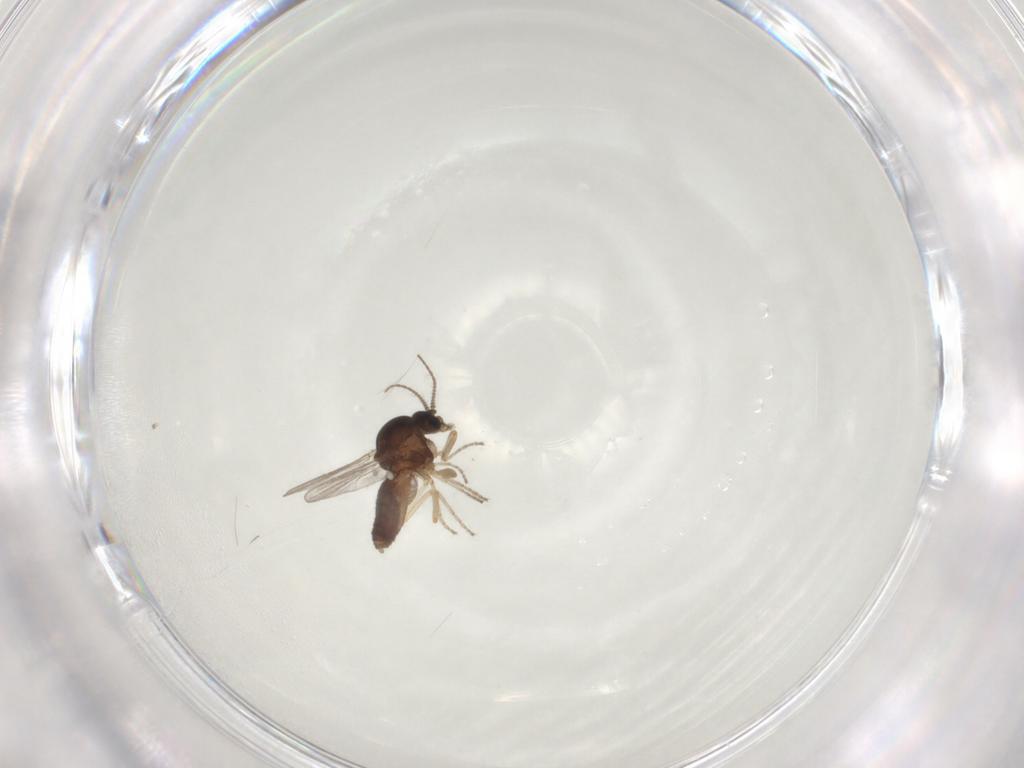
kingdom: Animalia
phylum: Arthropoda
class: Insecta
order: Diptera
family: Ceratopogonidae
